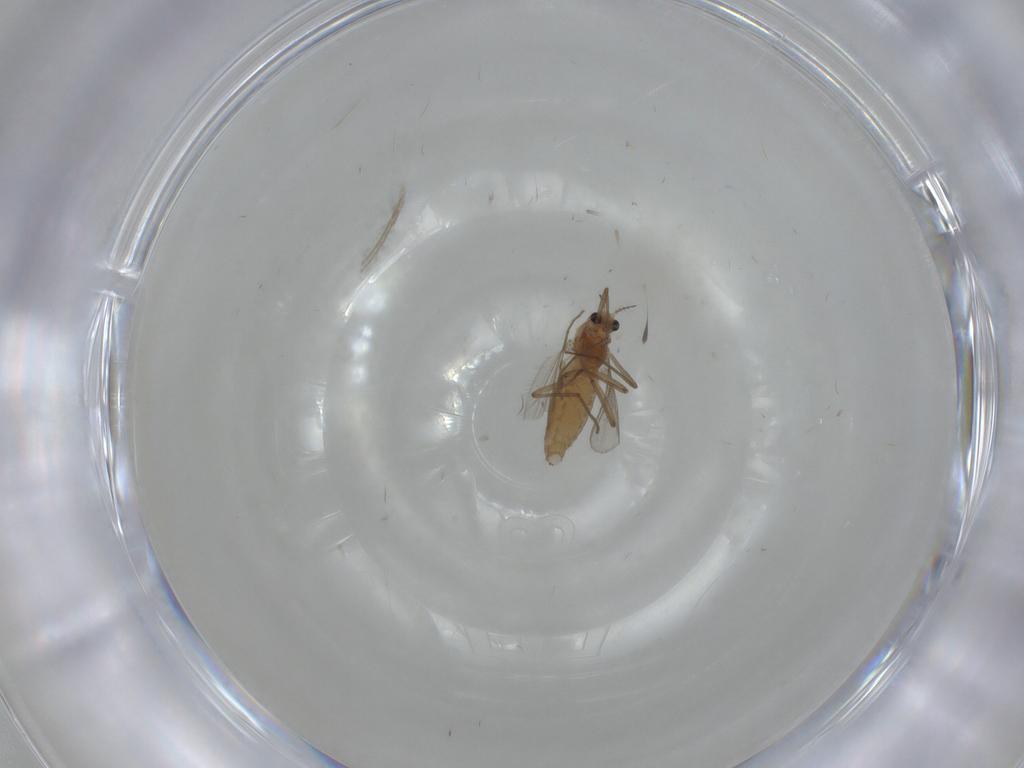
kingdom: Animalia
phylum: Arthropoda
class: Insecta
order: Diptera
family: Chironomidae
